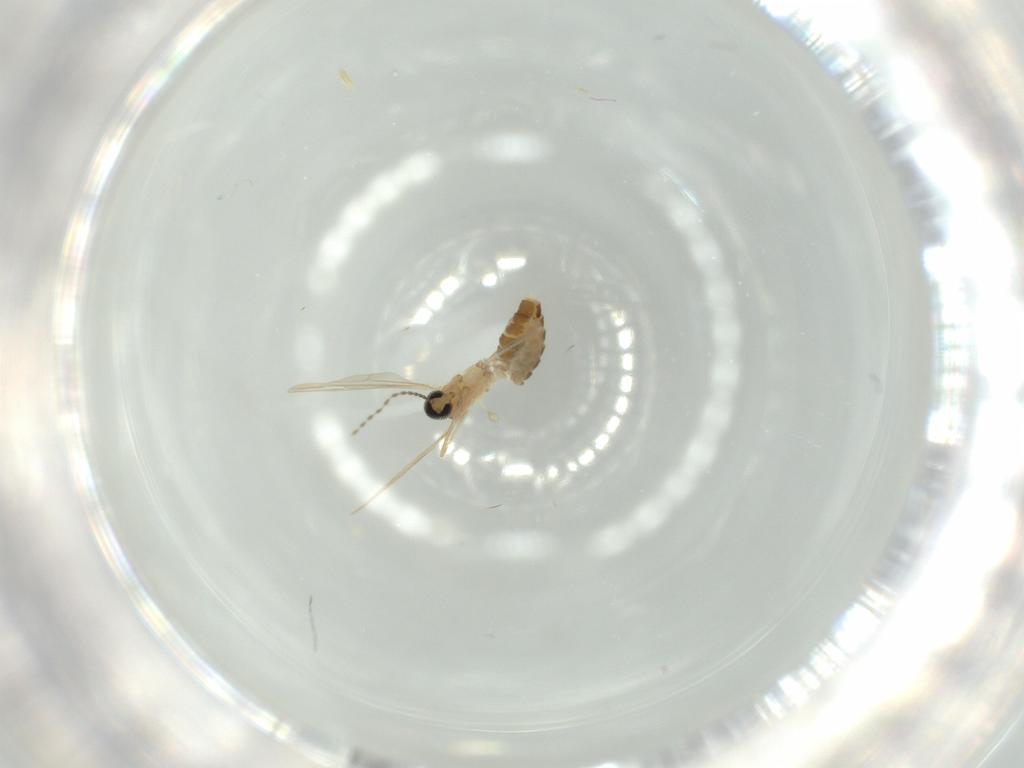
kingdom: Animalia
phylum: Arthropoda
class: Insecta
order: Diptera
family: Cecidomyiidae
